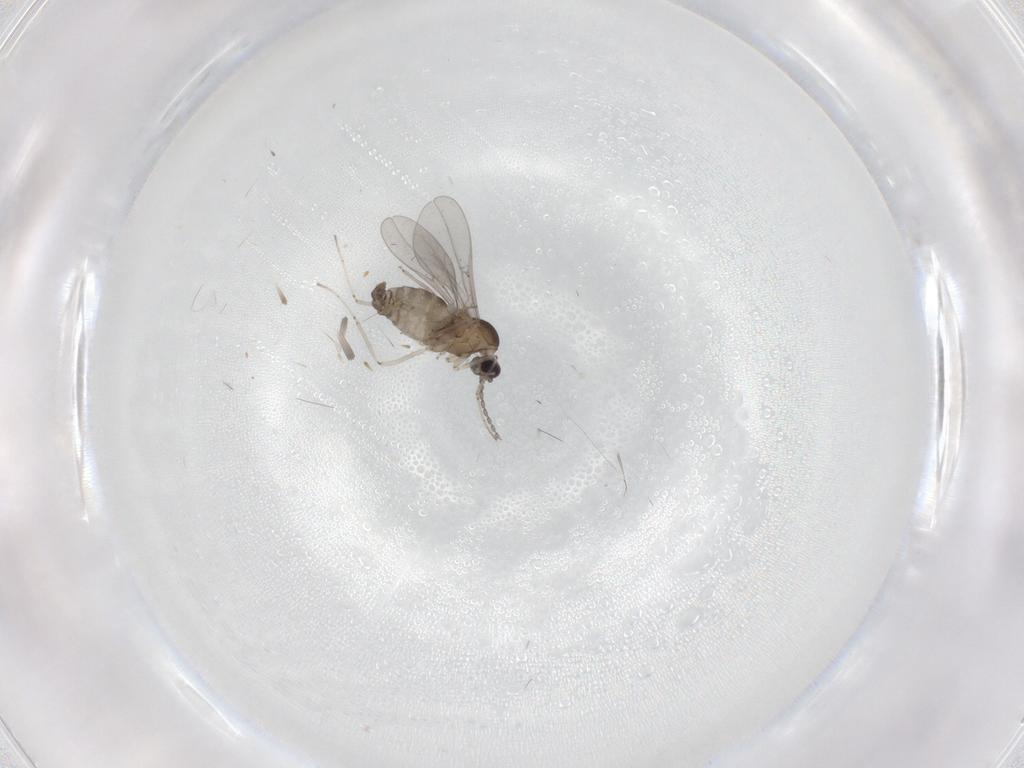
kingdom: Animalia
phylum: Arthropoda
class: Insecta
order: Diptera
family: Cecidomyiidae
